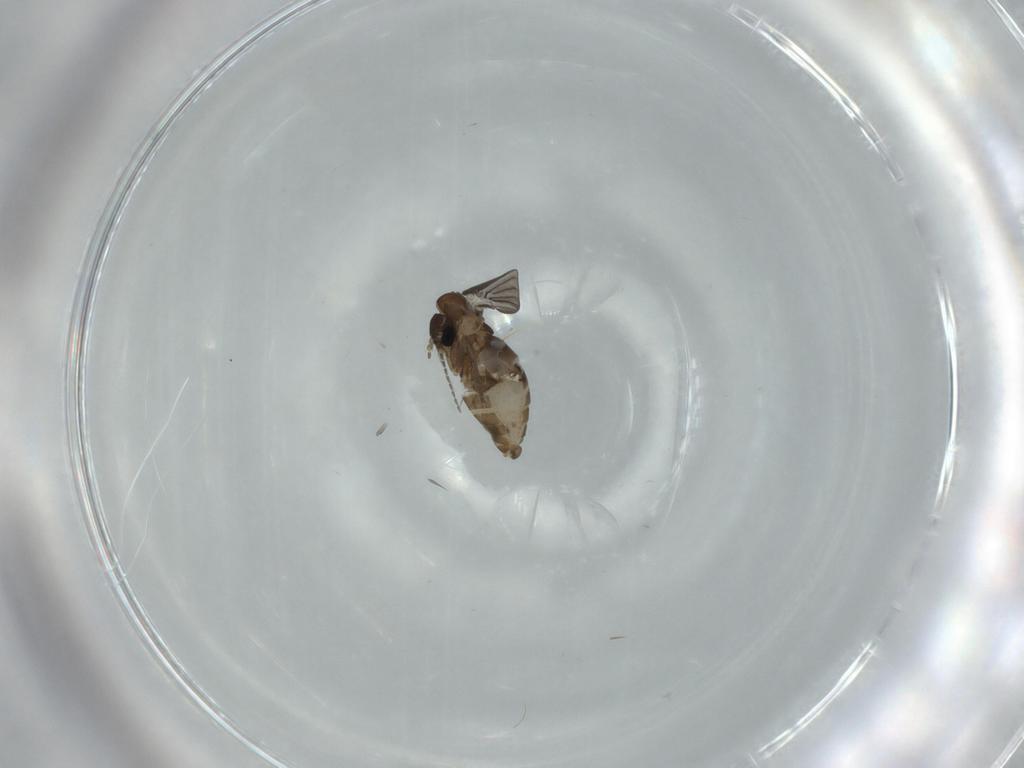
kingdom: Animalia
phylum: Arthropoda
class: Insecta
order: Diptera
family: Psychodidae
